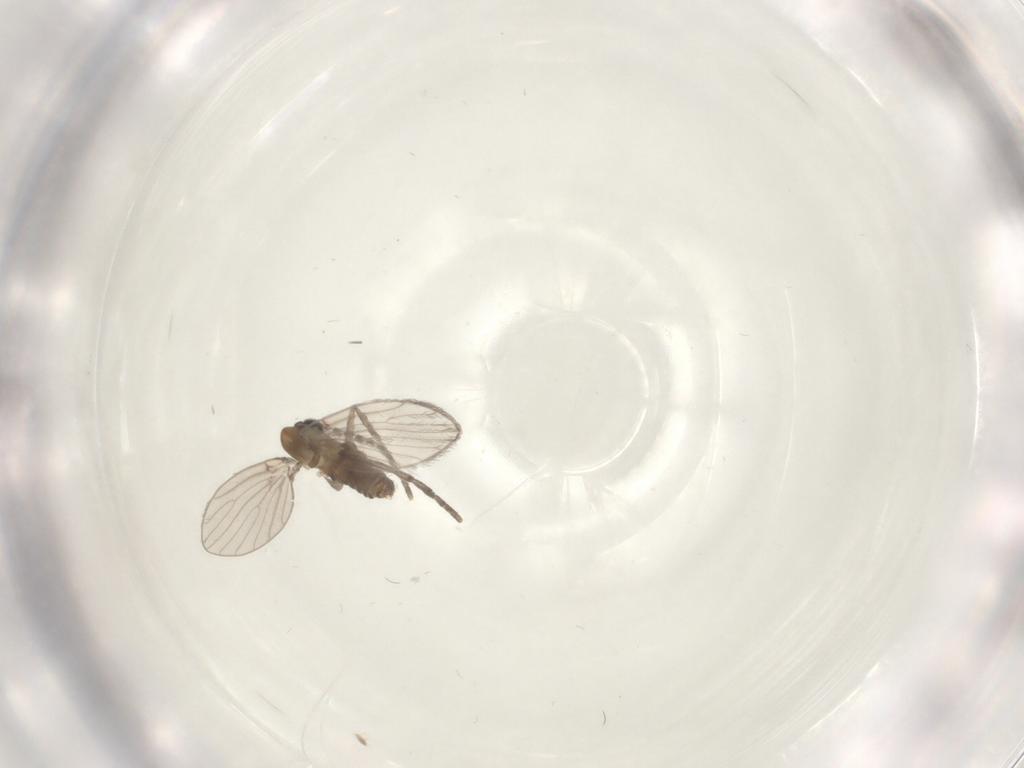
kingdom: Animalia
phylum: Arthropoda
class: Insecta
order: Diptera
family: Psychodidae
